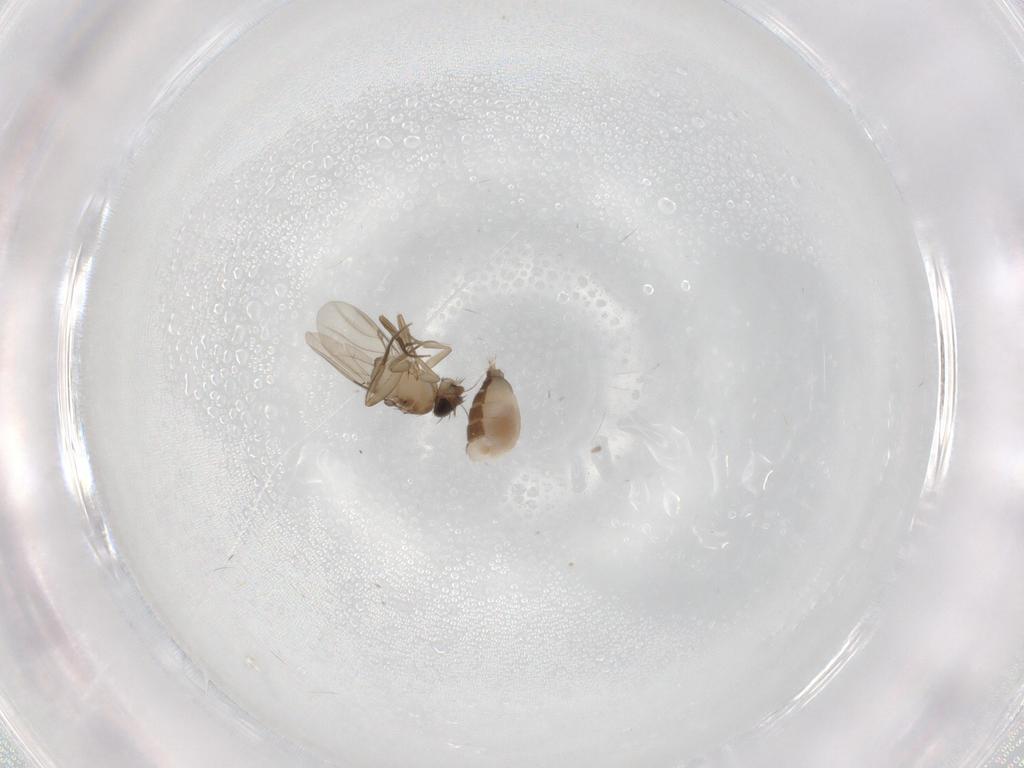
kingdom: Animalia
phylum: Arthropoda
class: Insecta
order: Diptera
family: Phoridae
